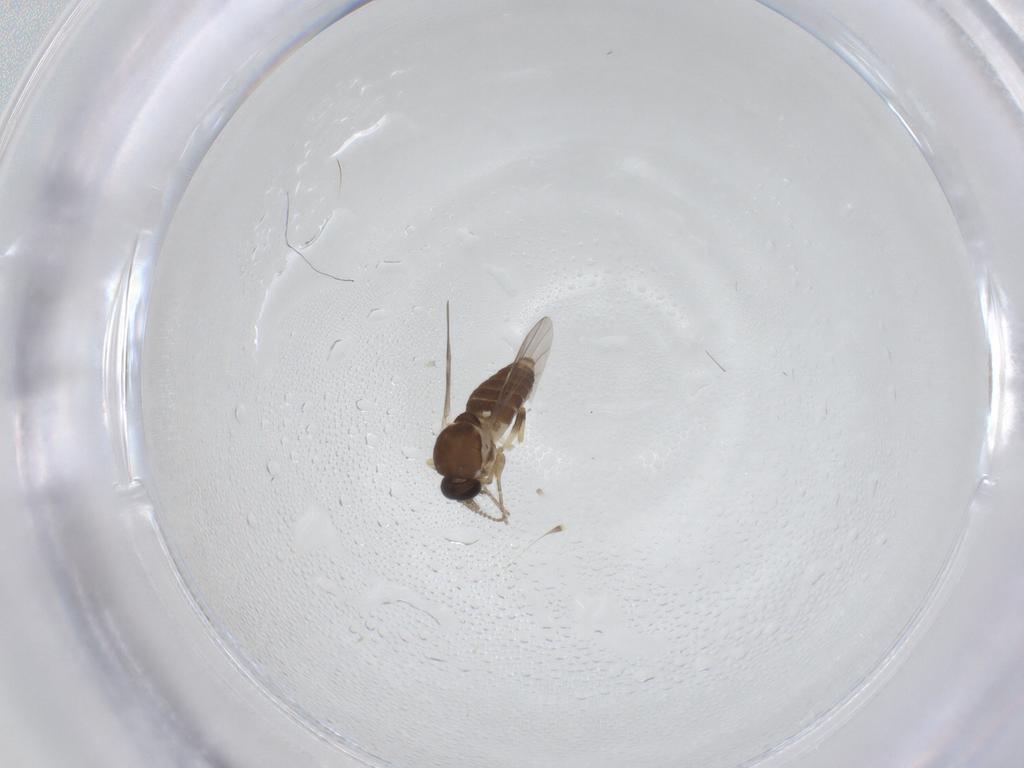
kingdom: Animalia
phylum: Arthropoda
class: Insecta
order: Diptera
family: Ceratopogonidae
